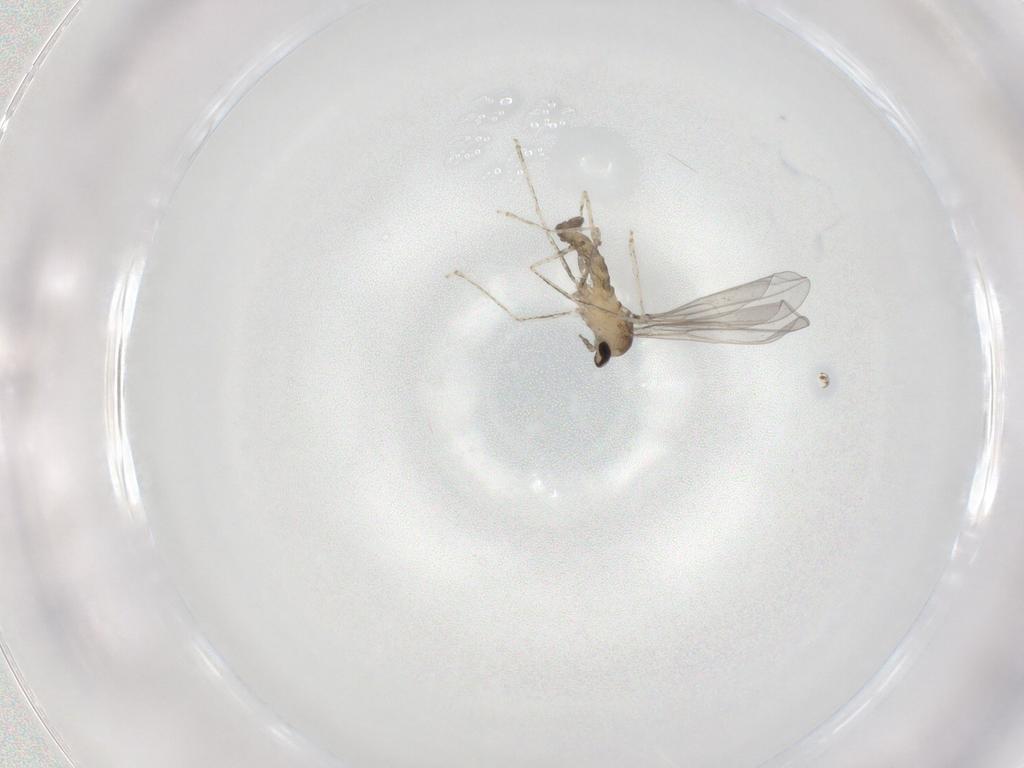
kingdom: Animalia
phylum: Arthropoda
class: Insecta
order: Diptera
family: Cecidomyiidae
